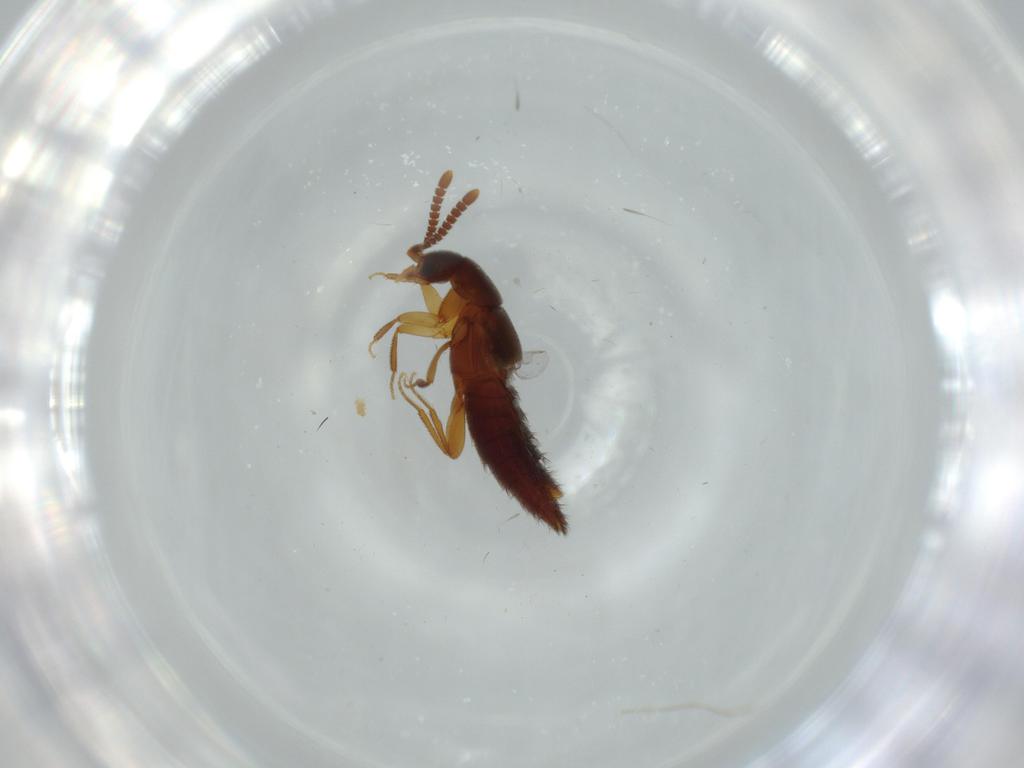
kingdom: Animalia
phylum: Arthropoda
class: Insecta
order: Coleoptera
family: Staphylinidae
